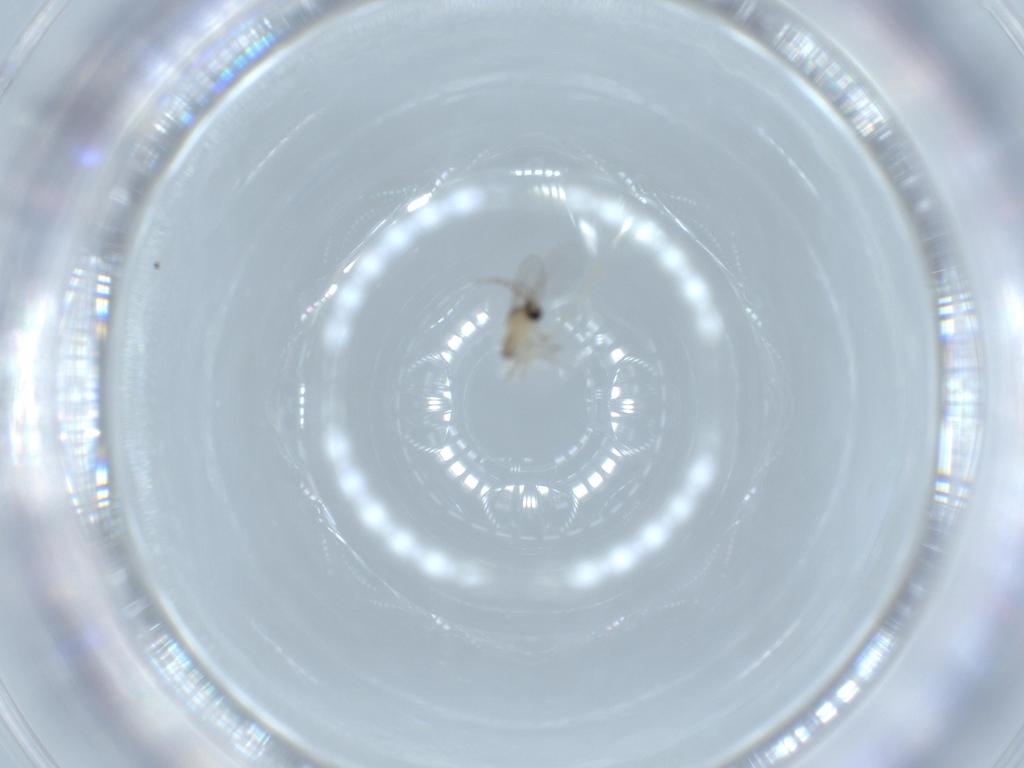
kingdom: Animalia
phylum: Arthropoda
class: Insecta
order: Diptera
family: Cecidomyiidae
